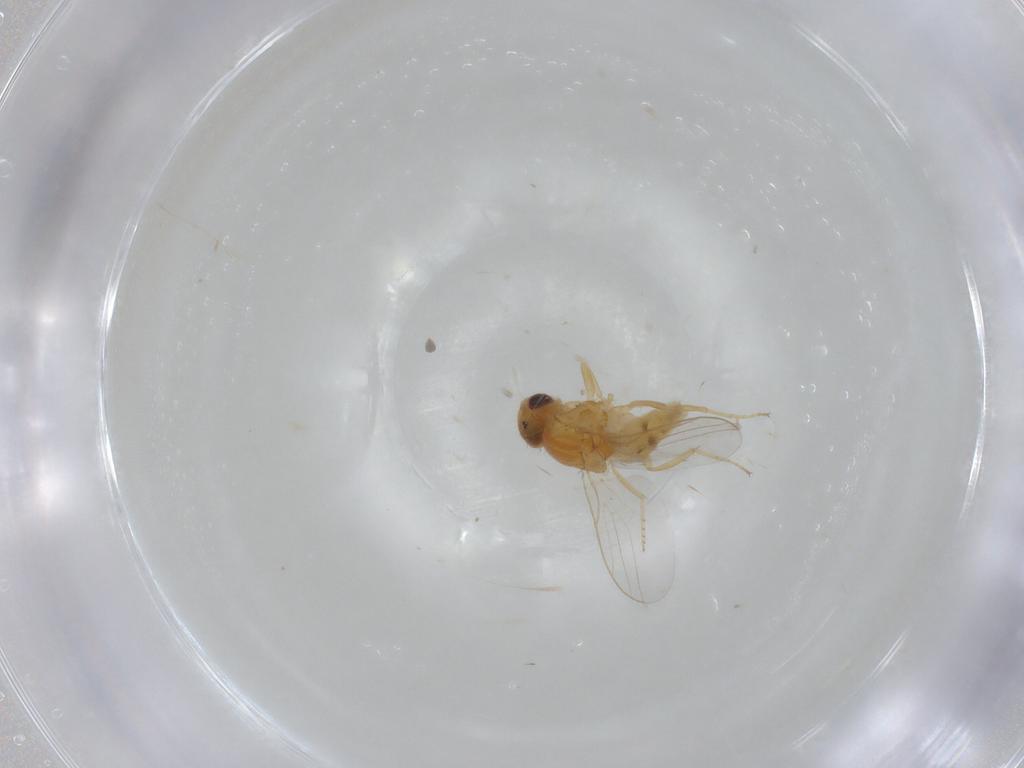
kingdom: Animalia
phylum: Arthropoda
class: Insecta
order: Diptera
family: Chloropidae
